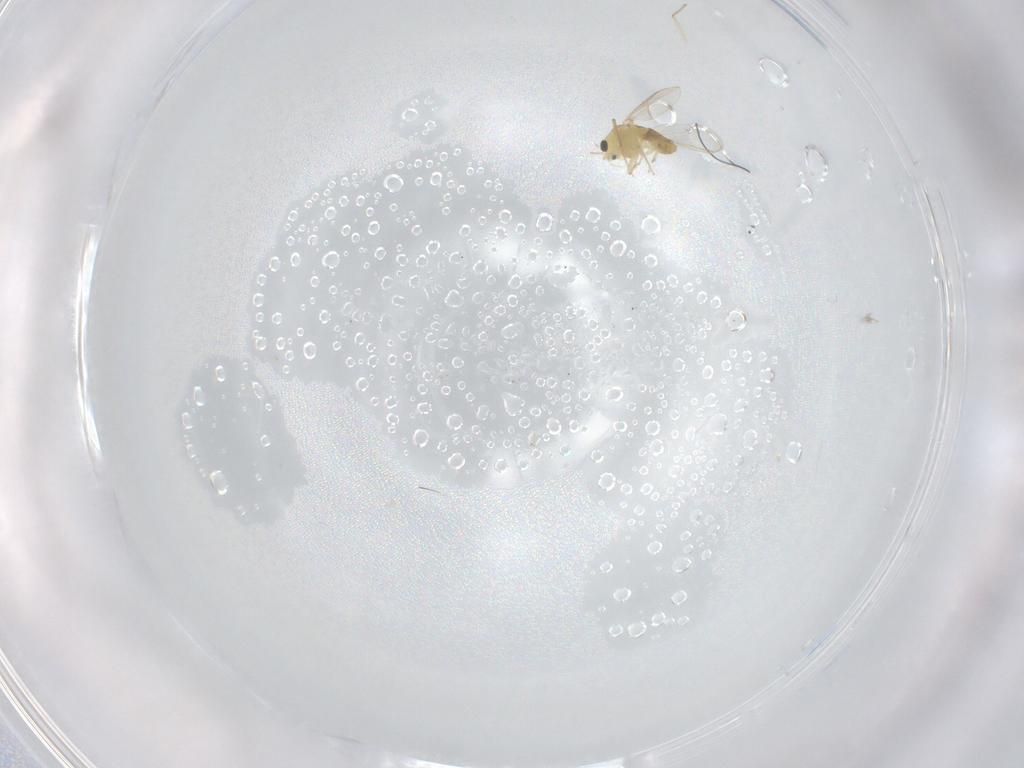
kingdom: Animalia
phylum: Arthropoda
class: Insecta
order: Diptera
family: Chironomidae
